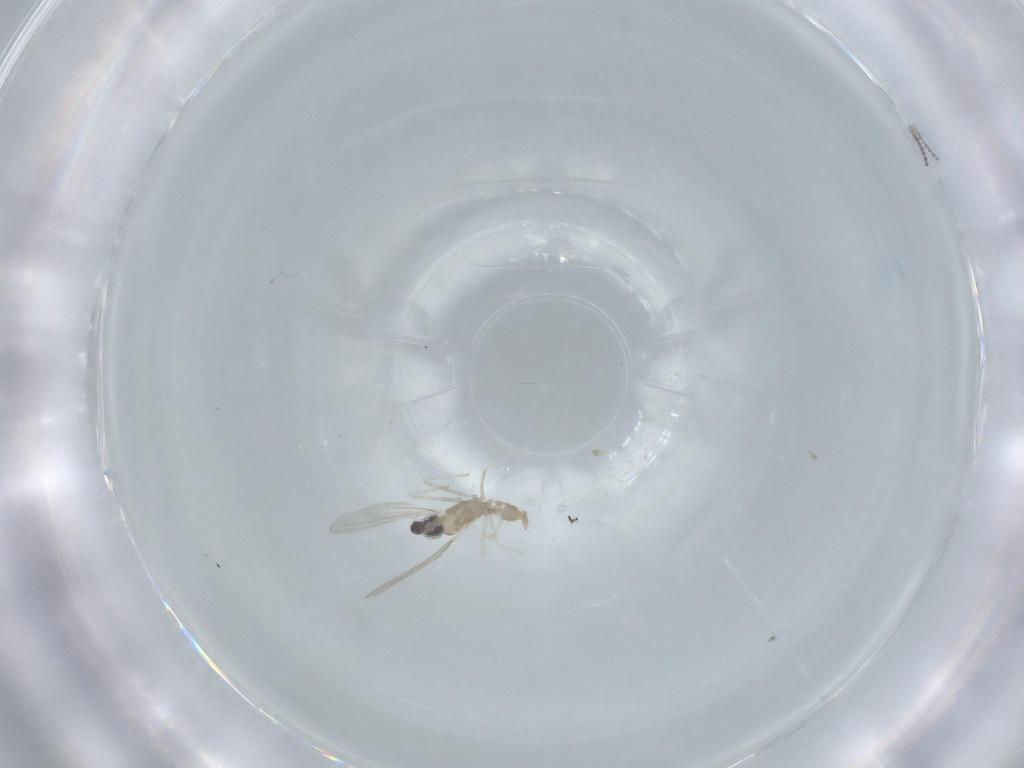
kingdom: Animalia
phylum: Arthropoda
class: Insecta
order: Diptera
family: Cecidomyiidae
